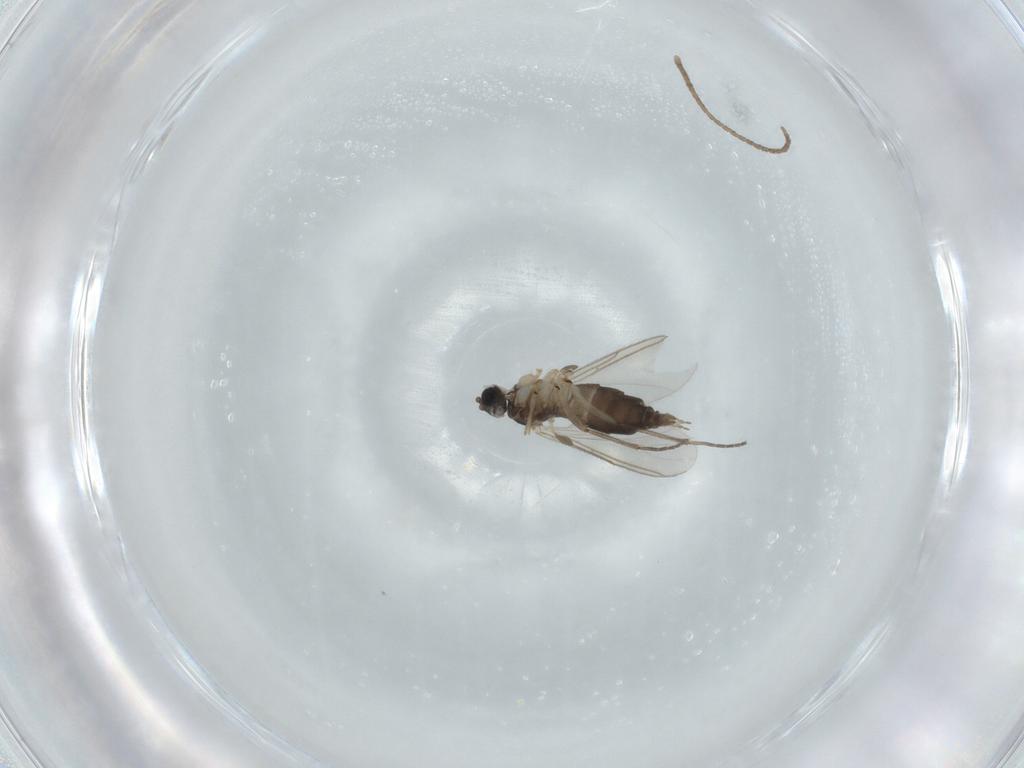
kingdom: Animalia
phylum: Arthropoda
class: Insecta
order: Diptera
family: Sciaridae
